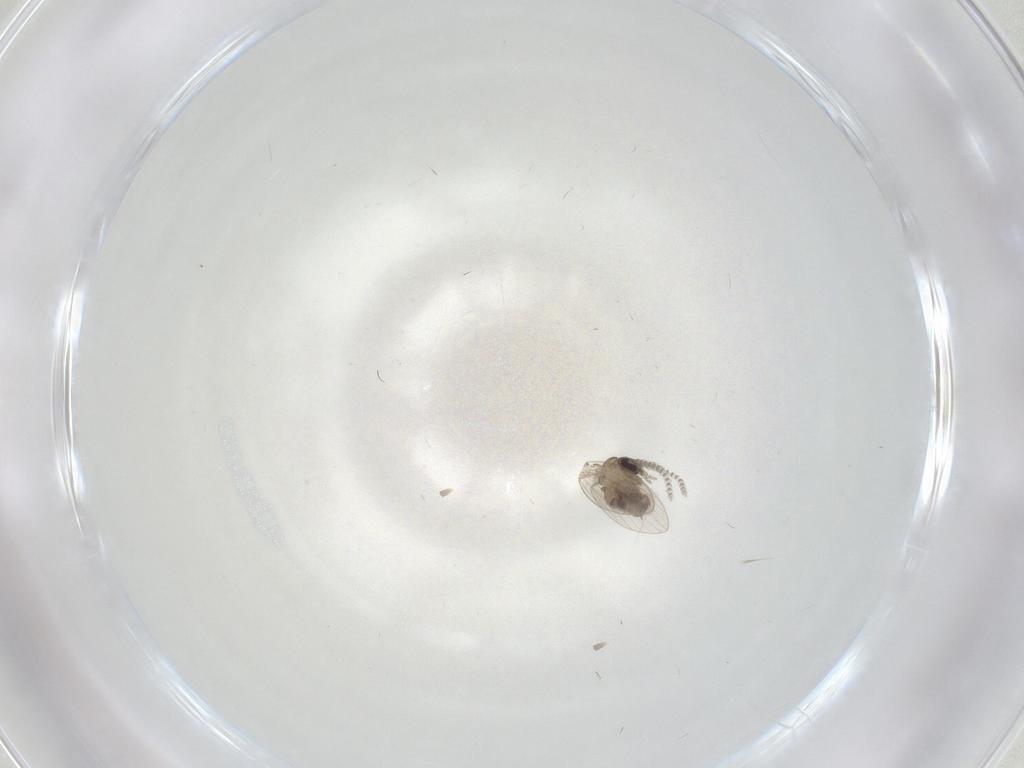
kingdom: Animalia
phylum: Arthropoda
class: Insecta
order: Diptera
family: Psychodidae
